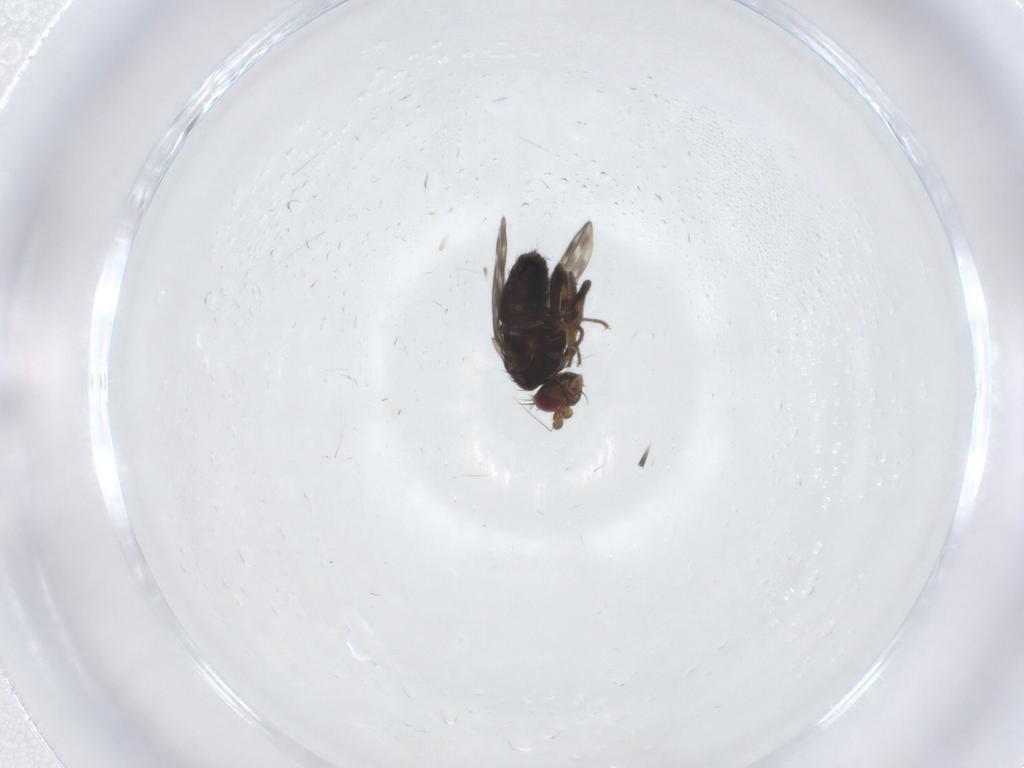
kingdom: Animalia
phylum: Arthropoda
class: Insecta
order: Diptera
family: Sphaeroceridae
